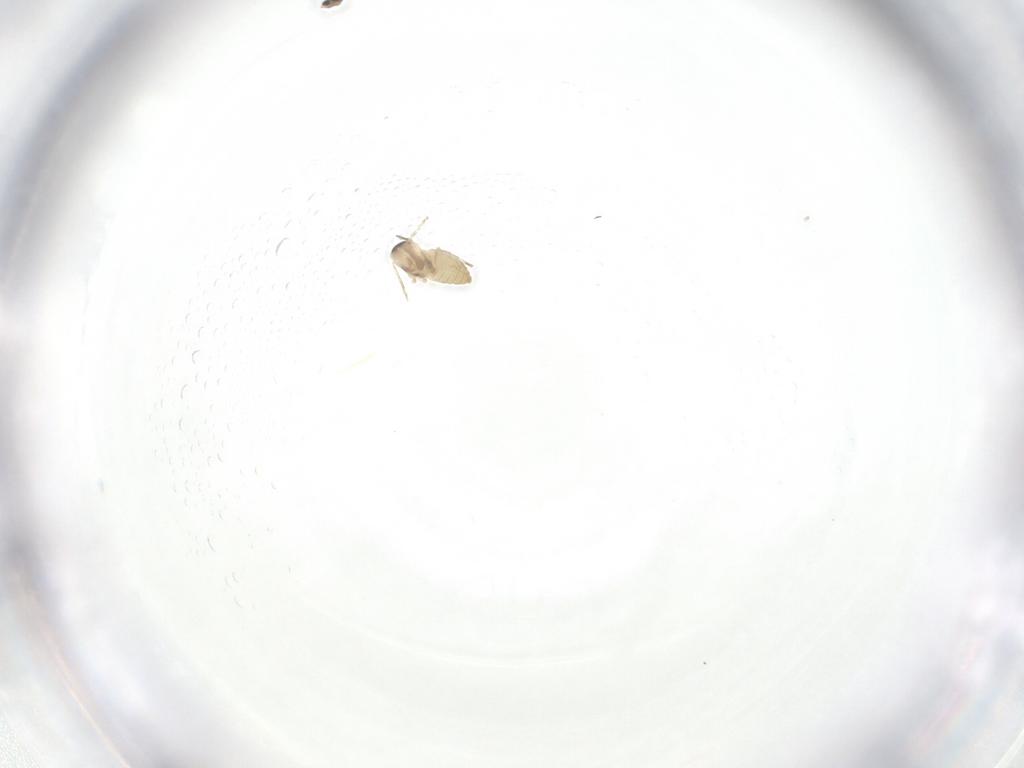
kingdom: Animalia
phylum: Arthropoda
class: Insecta
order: Diptera
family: Cecidomyiidae
